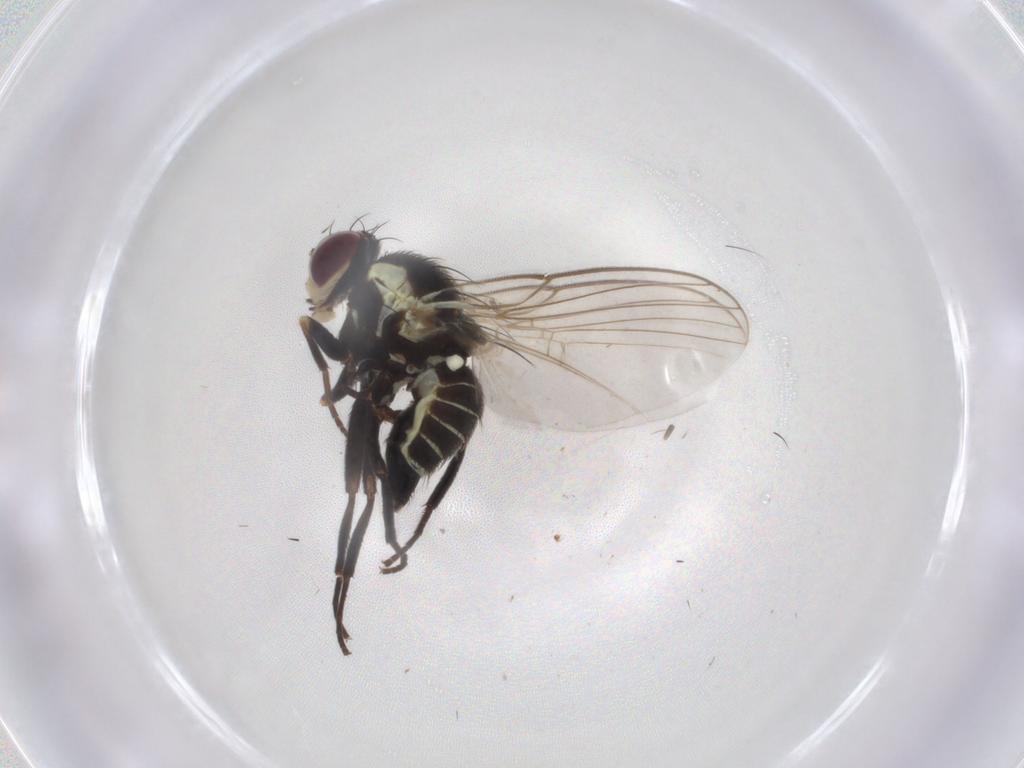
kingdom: Animalia
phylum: Arthropoda
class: Insecta
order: Diptera
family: Agromyzidae
